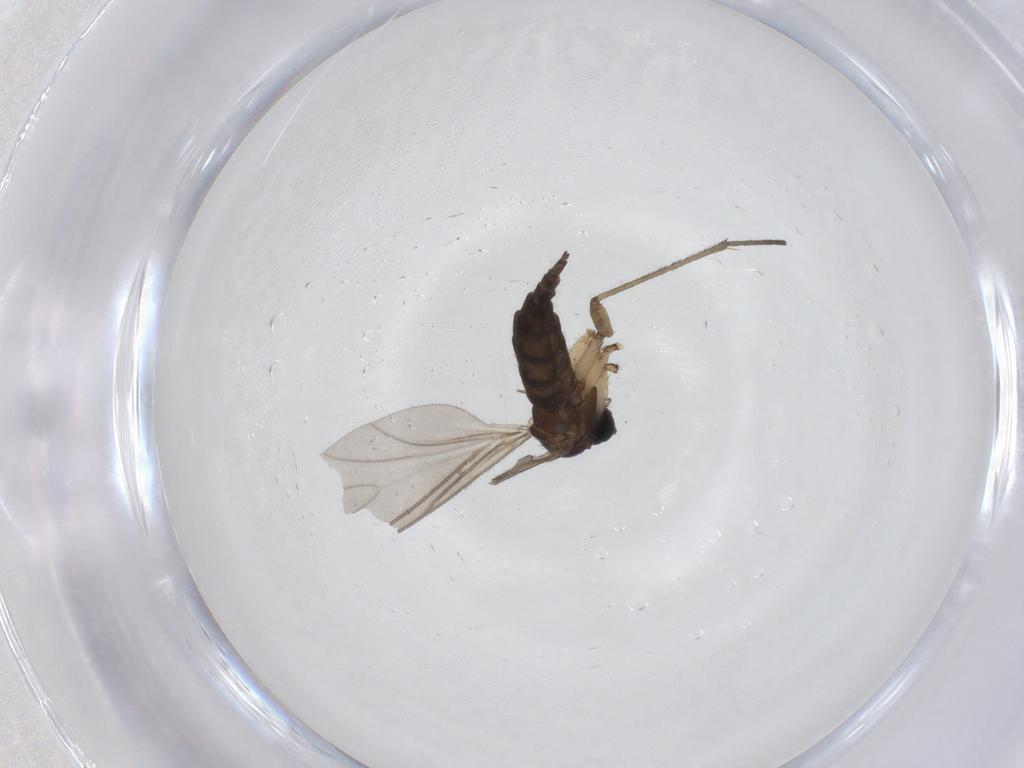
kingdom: Animalia
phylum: Arthropoda
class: Insecta
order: Diptera
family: Sciaridae
